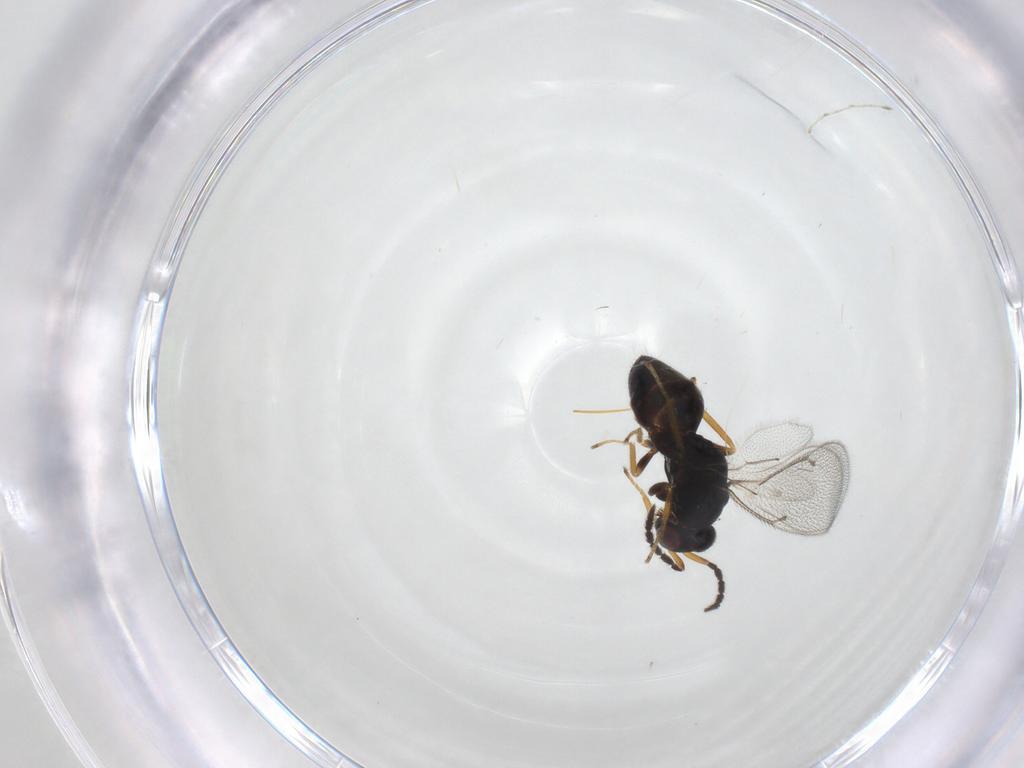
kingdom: Animalia
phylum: Arthropoda
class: Insecta
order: Hymenoptera
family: Eulophidae
